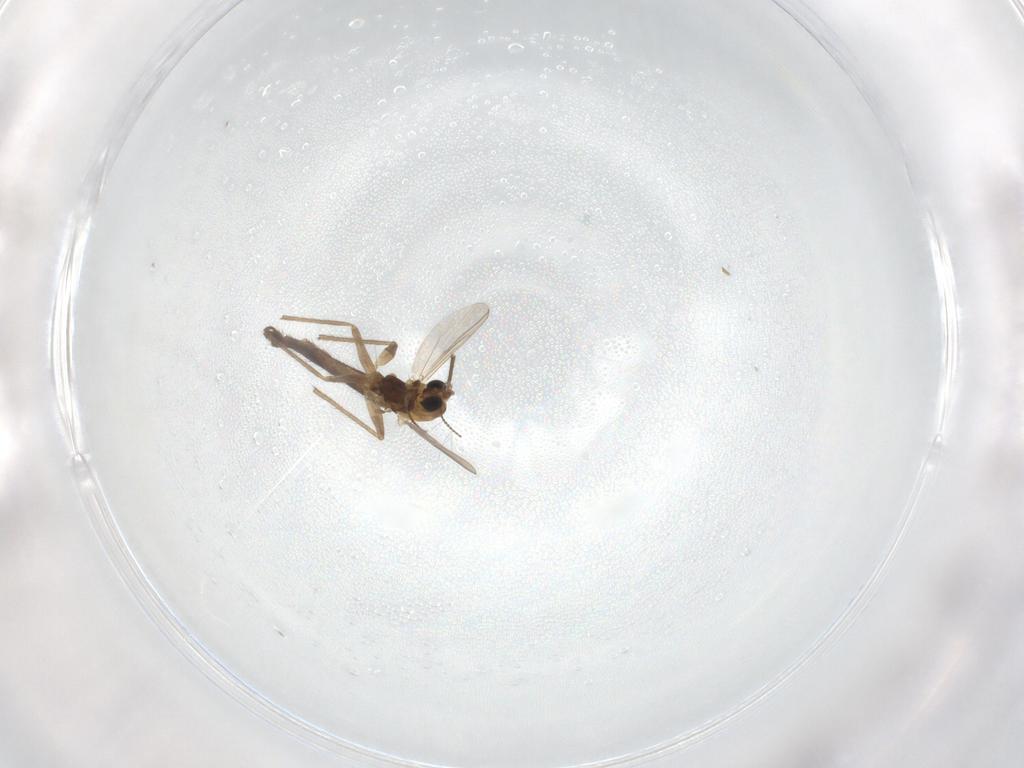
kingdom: Animalia
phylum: Arthropoda
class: Insecta
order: Diptera
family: Chironomidae
